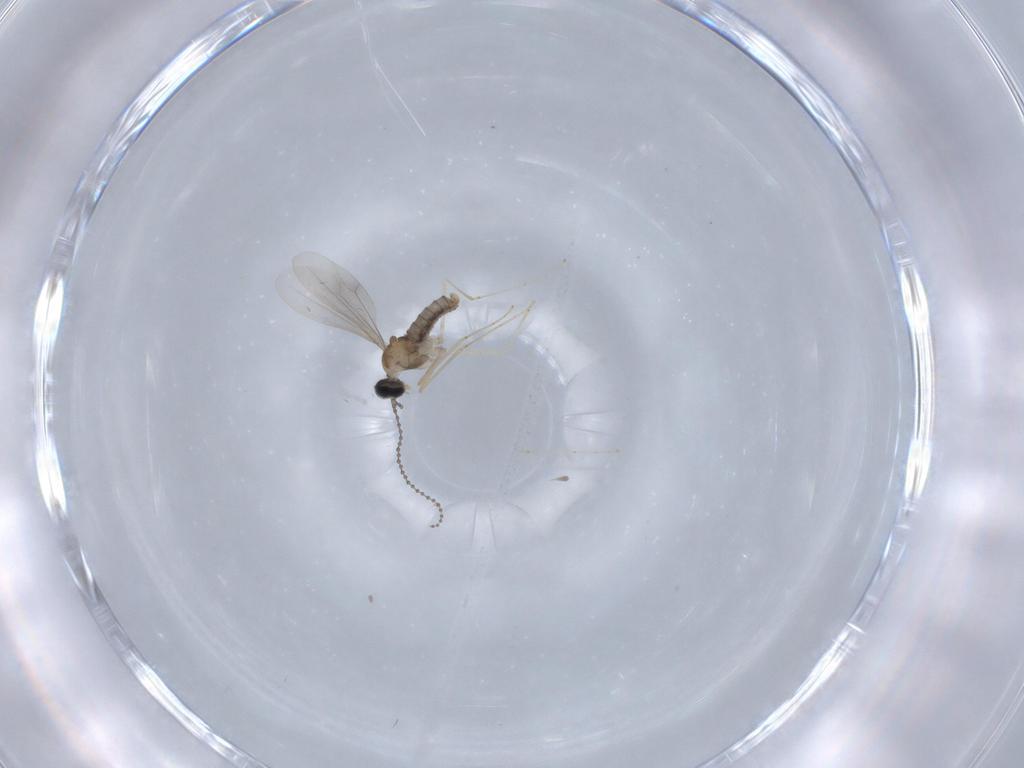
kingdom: Animalia
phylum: Arthropoda
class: Insecta
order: Diptera
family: Cecidomyiidae
